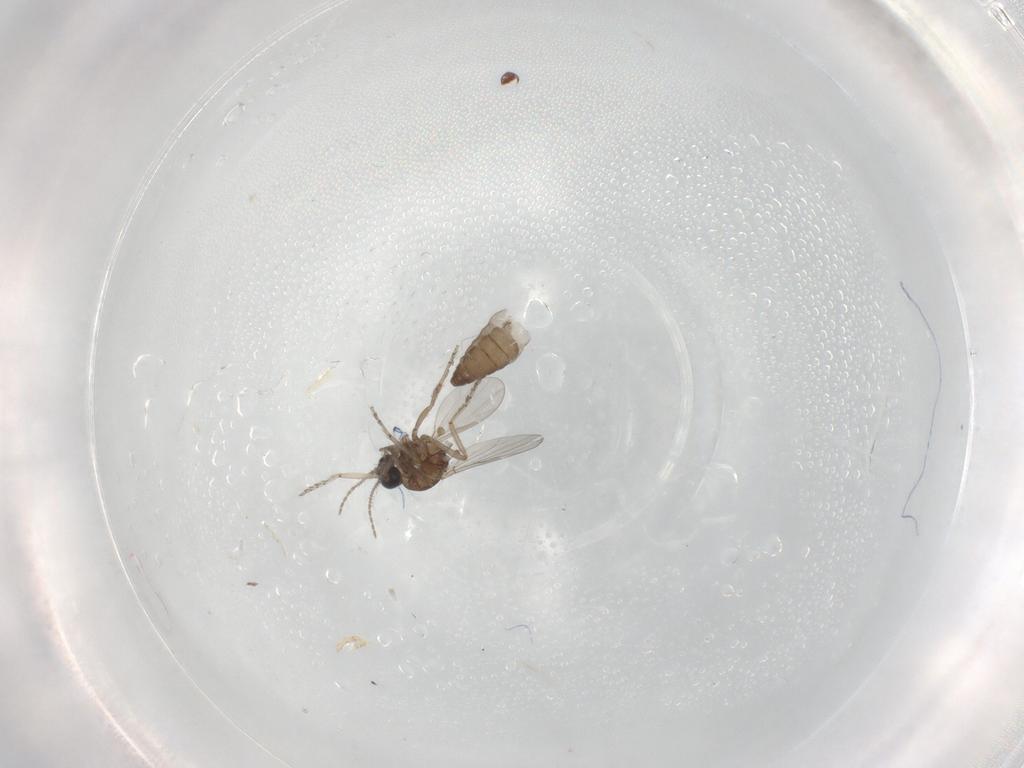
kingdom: Animalia
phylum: Arthropoda
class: Insecta
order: Diptera
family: Ceratopogonidae
